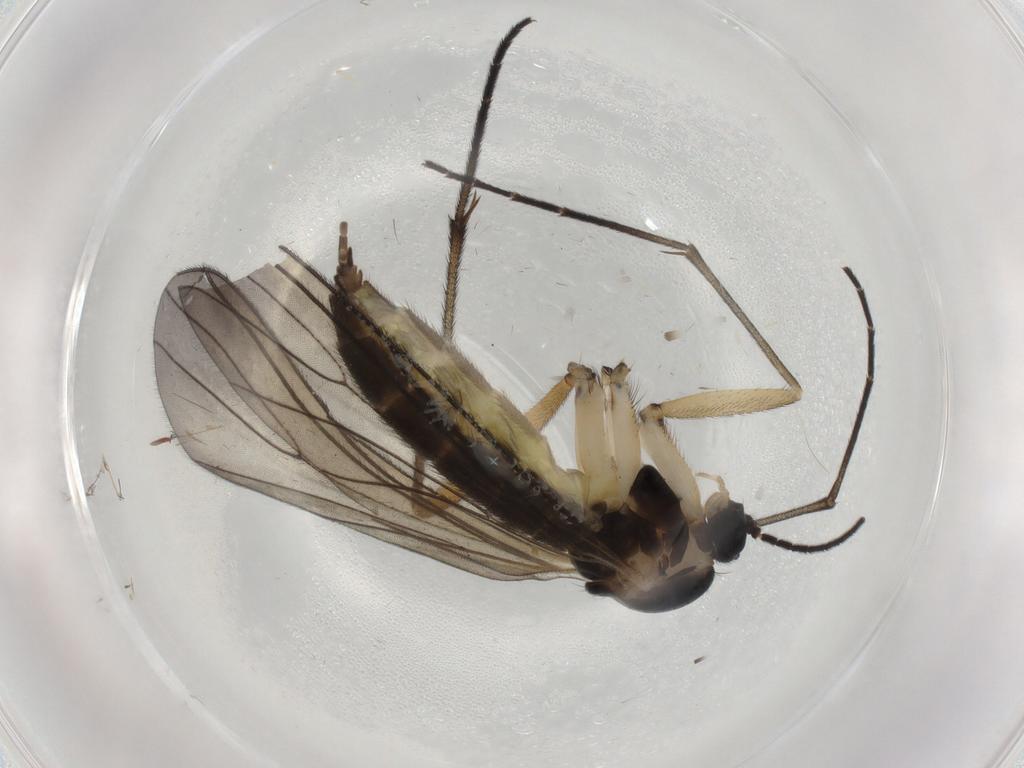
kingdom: Animalia
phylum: Arthropoda
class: Insecta
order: Diptera
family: Sciaridae
